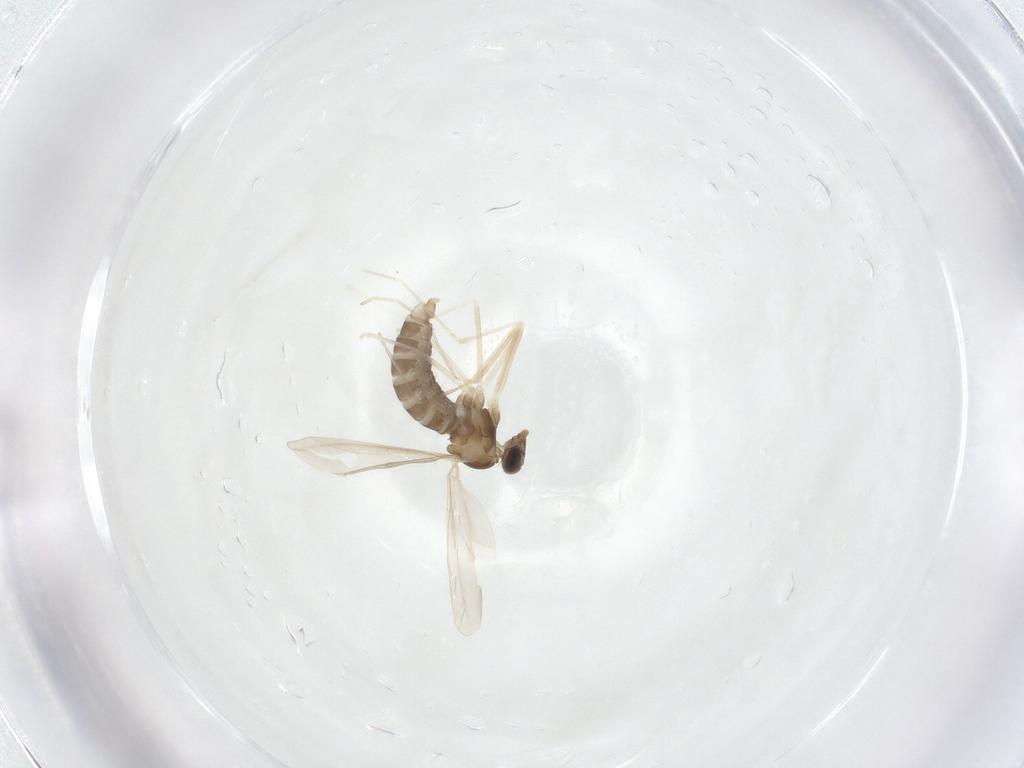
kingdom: Animalia
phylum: Arthropoda
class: Insecta
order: Diptera
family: Cecidomyiidae
